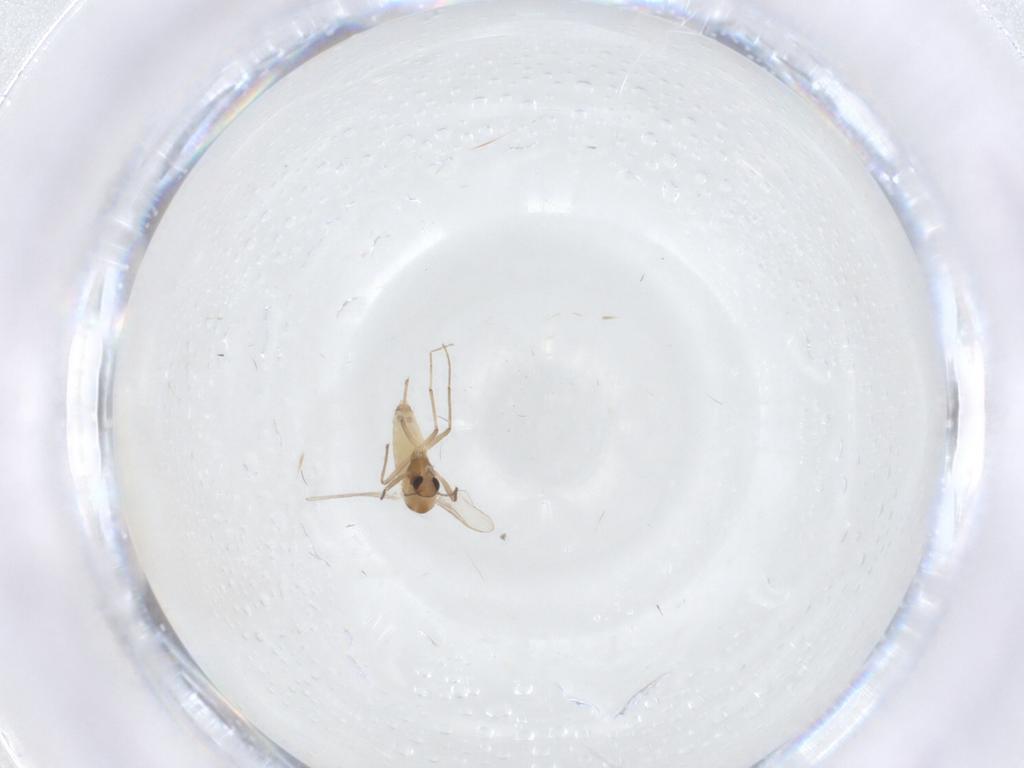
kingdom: Animalia
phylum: Arthropoda
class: Insecta
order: Diptera
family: Chironomidae
